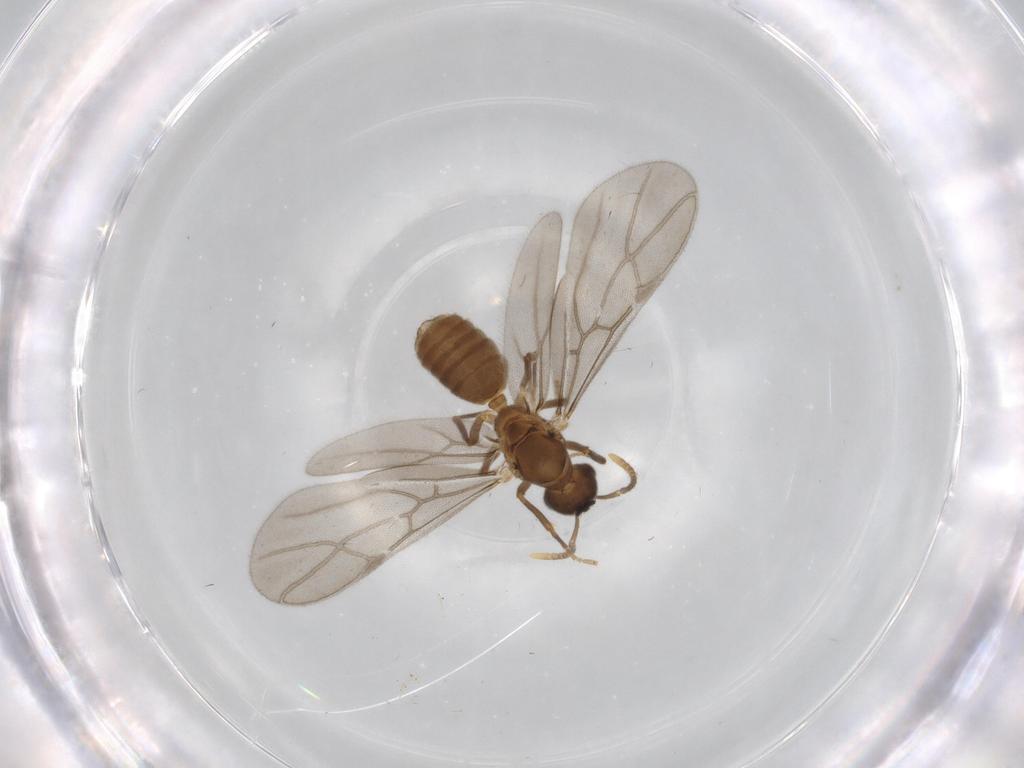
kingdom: Animalia
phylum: Arthropoda
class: Insecta
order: Hymenoptera
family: Formicidae
